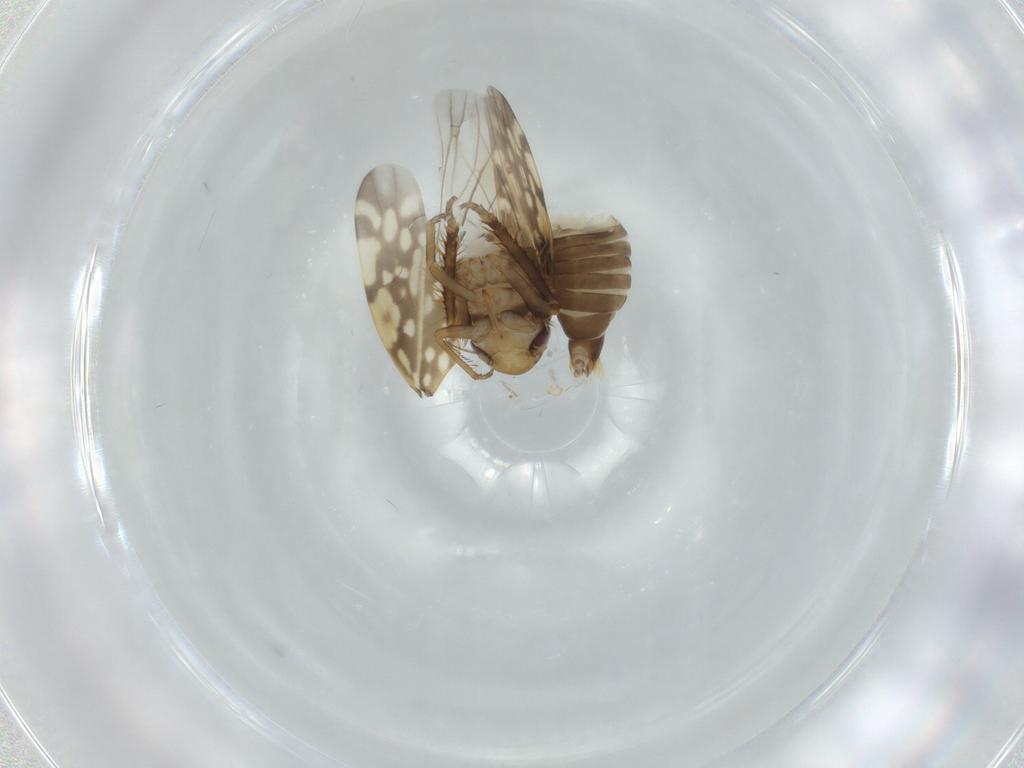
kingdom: Animalia
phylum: Arthropoda
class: Insecta
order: Hemiptera
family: Cicadellidae
